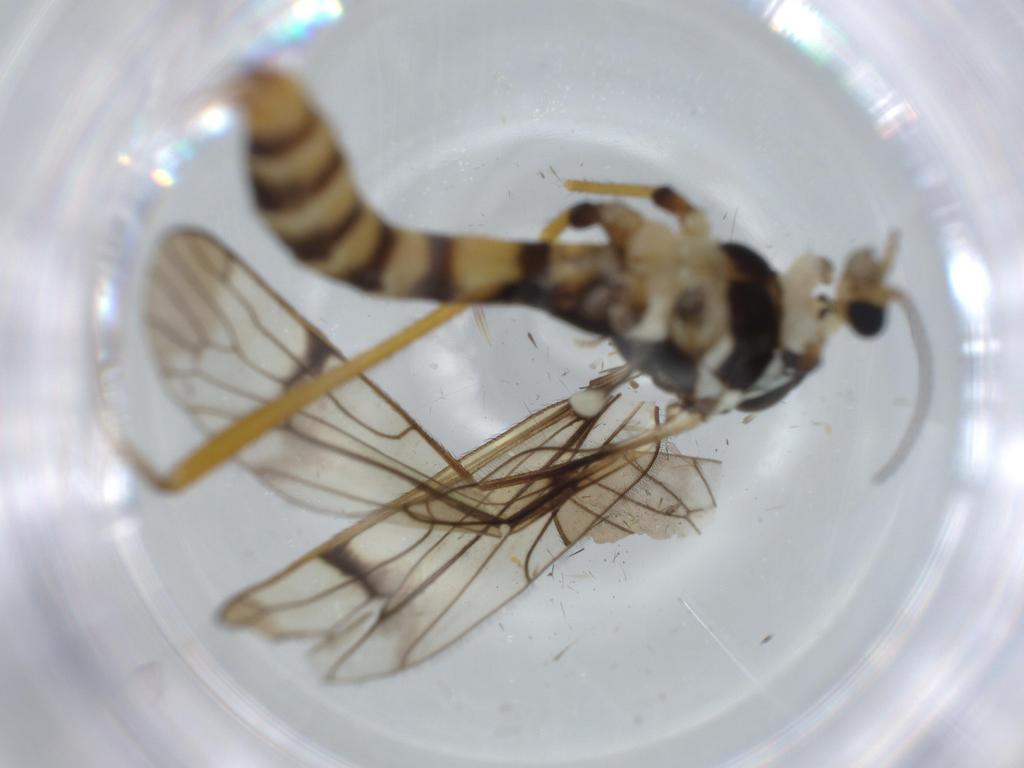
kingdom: Animalia
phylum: Arthropoda
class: Insecta
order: Diptera
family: Limoniidae
